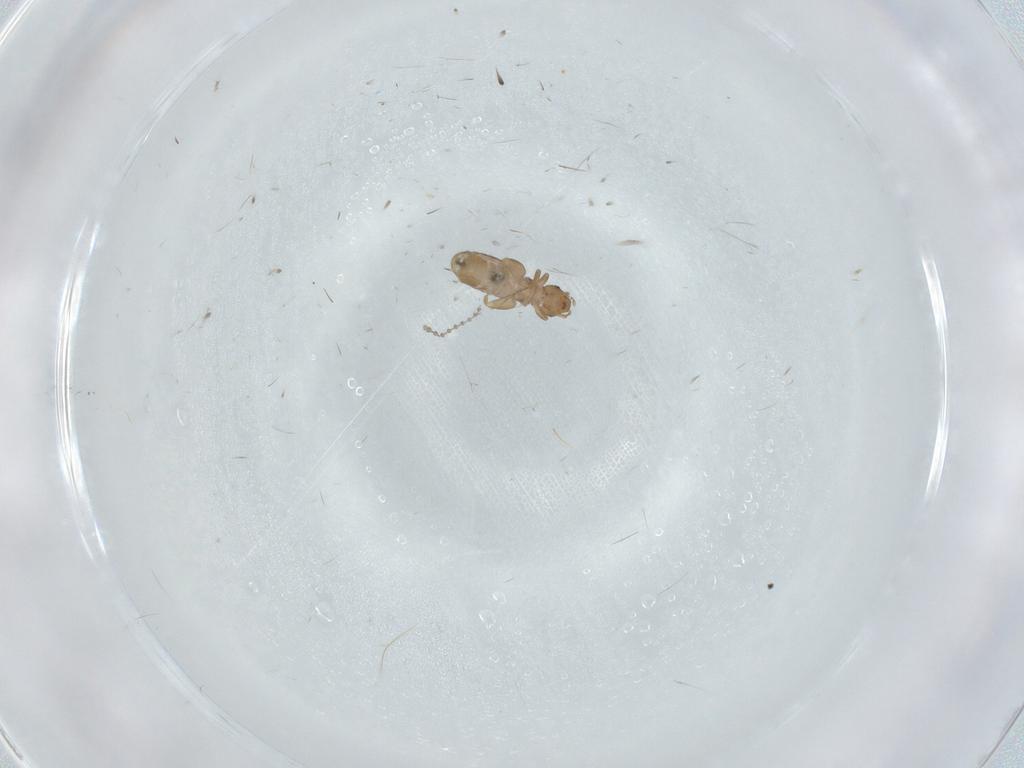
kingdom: Animalia
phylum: Arthropoda
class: Insecta
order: Psocodea
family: Liposcelididae
